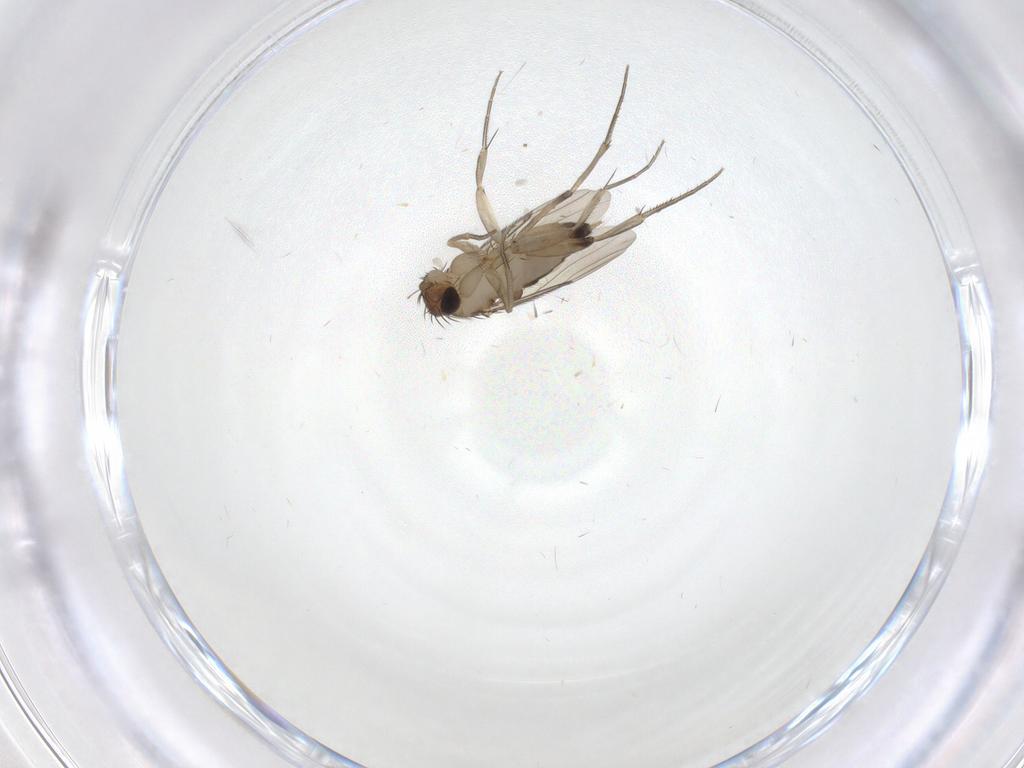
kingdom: Animalia
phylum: Arthropoda
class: Insecta
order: Diptera
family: Phoridae
